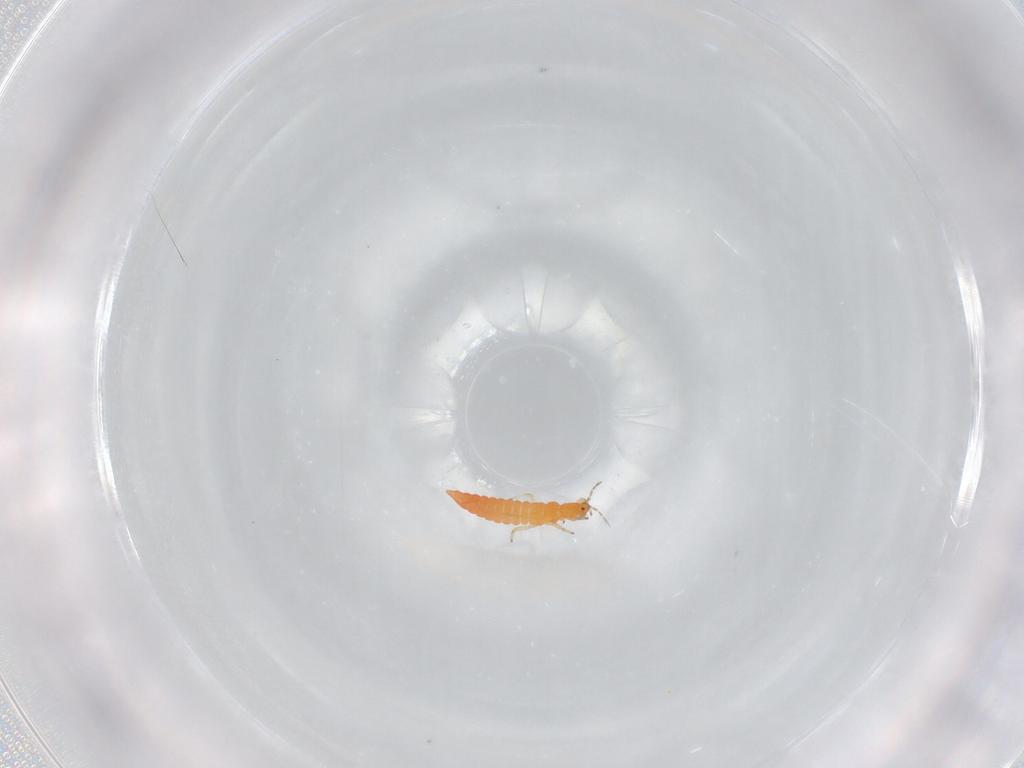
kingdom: Animalia
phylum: Arthropoda
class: Insecta
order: Thysanoptera
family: Aeolothripidae
